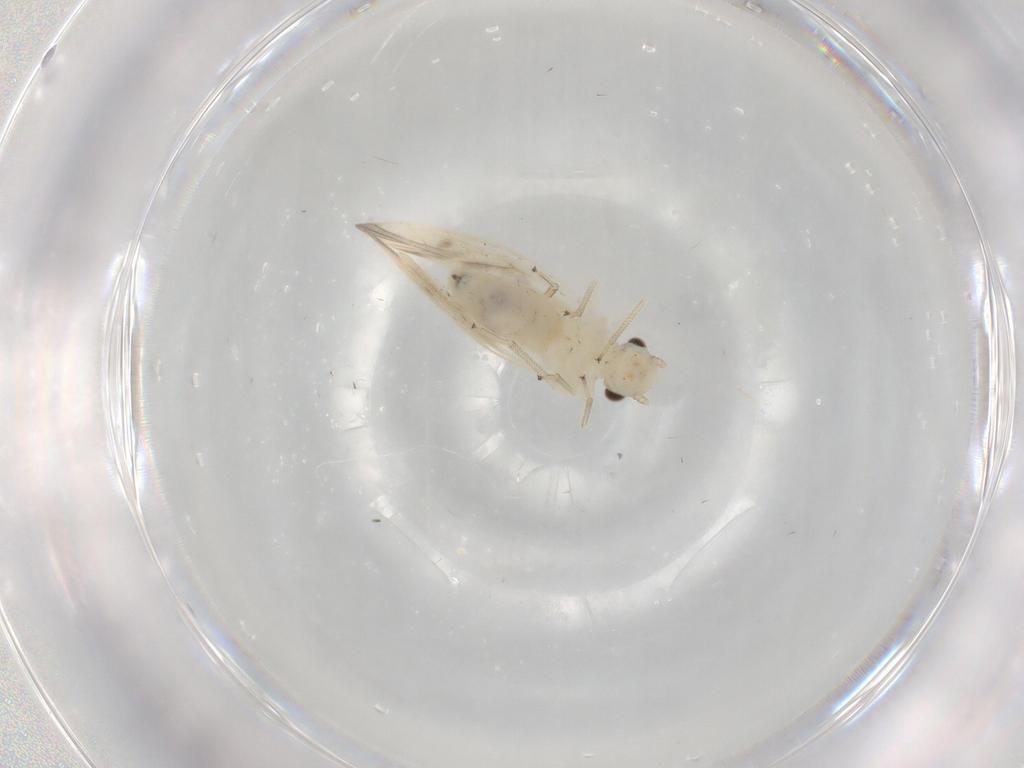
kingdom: Animalia
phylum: Arthropoda
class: Insecta
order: Psocodea
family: Caeciliusidae
